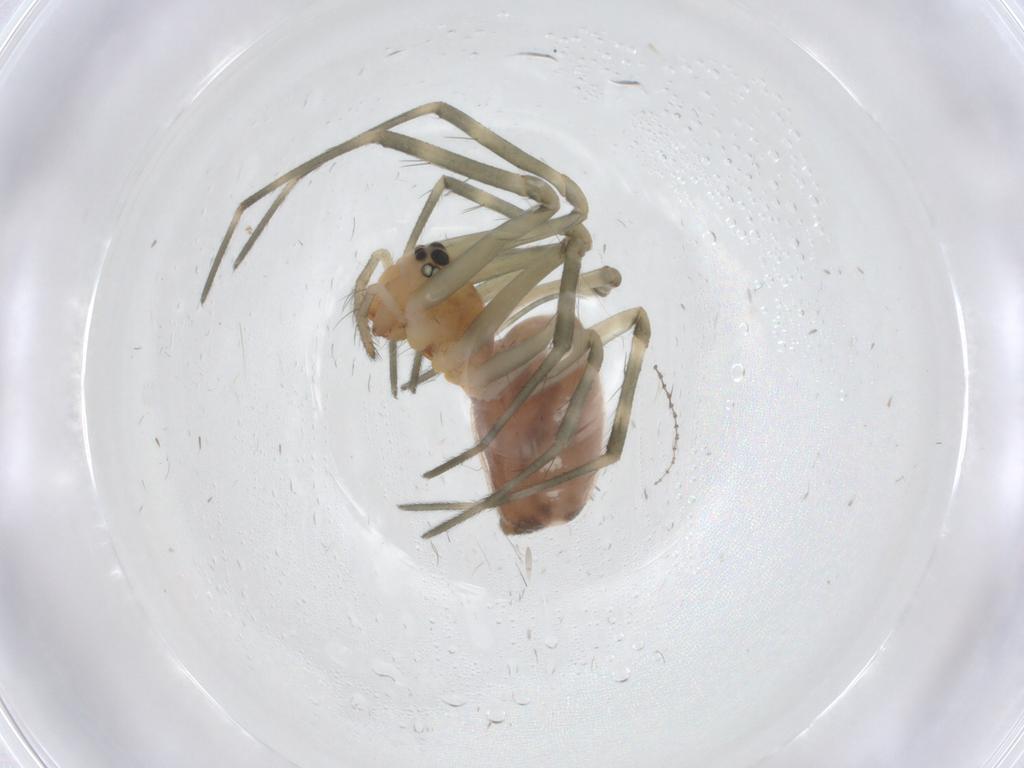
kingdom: Animalia
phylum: Arthropoda
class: Arachnida
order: Araneae
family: Linyphiidae
